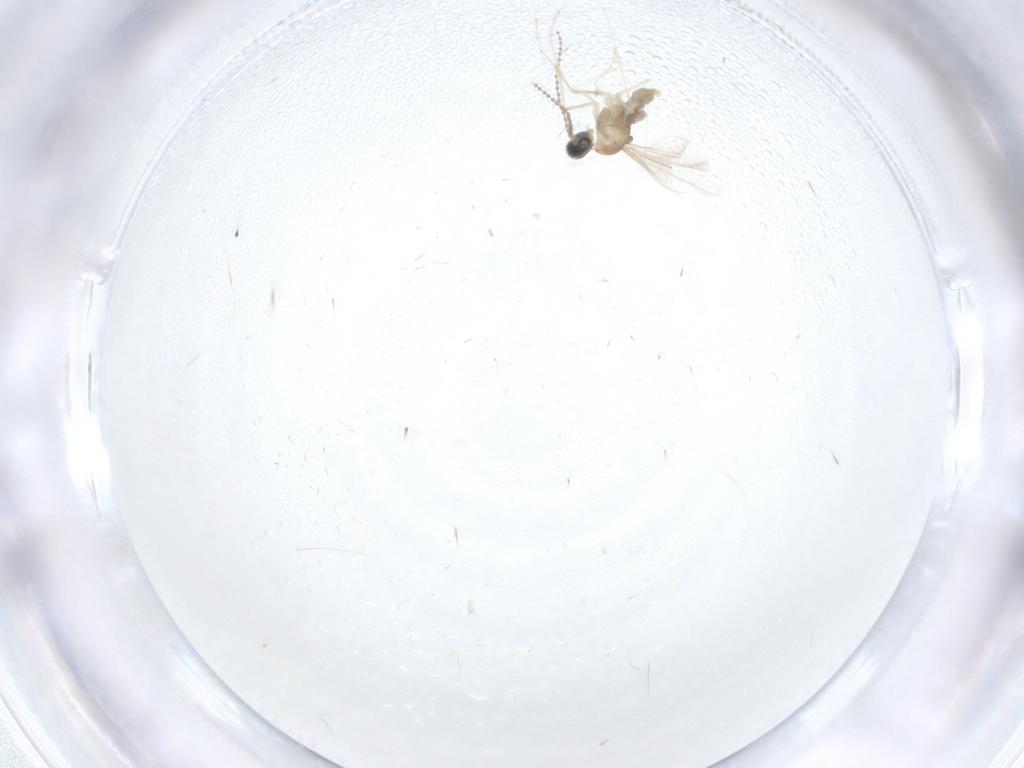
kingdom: Animalia
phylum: Arthropoda
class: Insecta
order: Diptera
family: Cecidomyiidae
